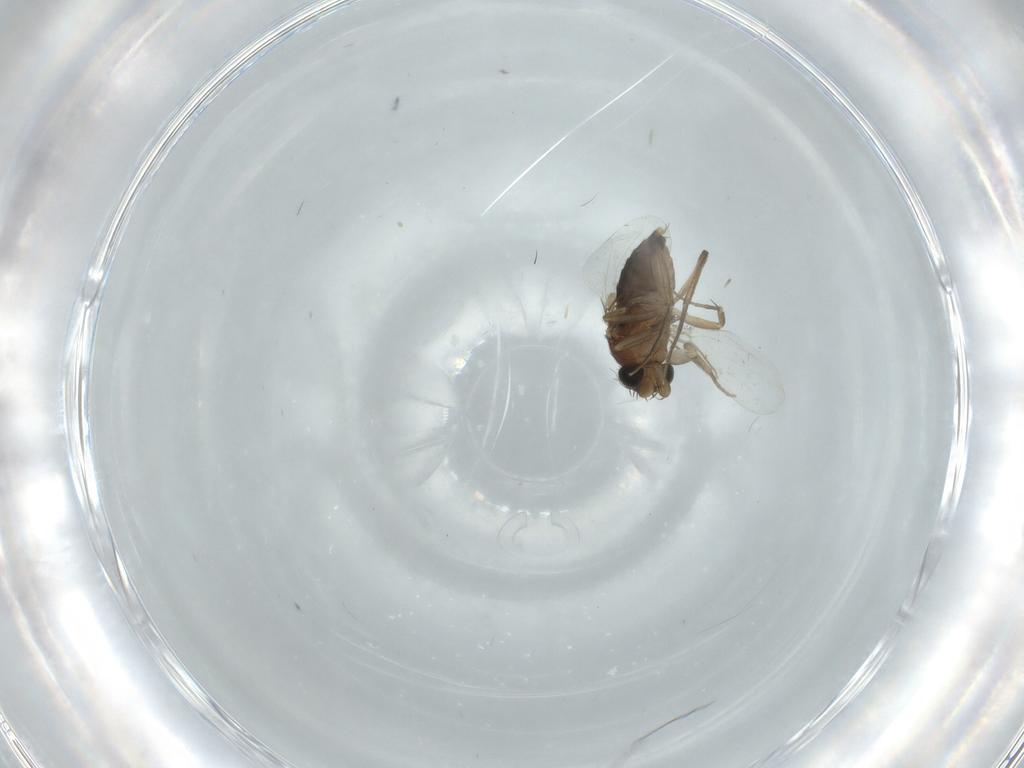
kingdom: Animalia
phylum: Arthropoda
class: Insecta
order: Diptera
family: Phoridae
